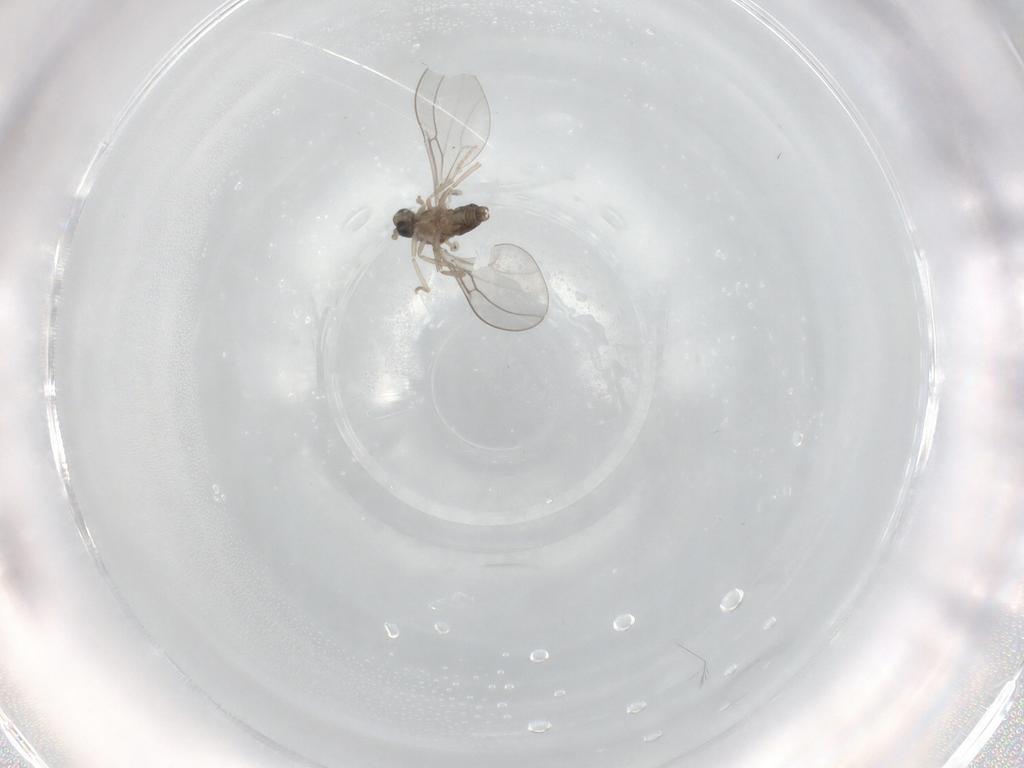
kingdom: Animalia
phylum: Arthropoda
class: Insecta
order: Diptera
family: Cecidomyiidae
